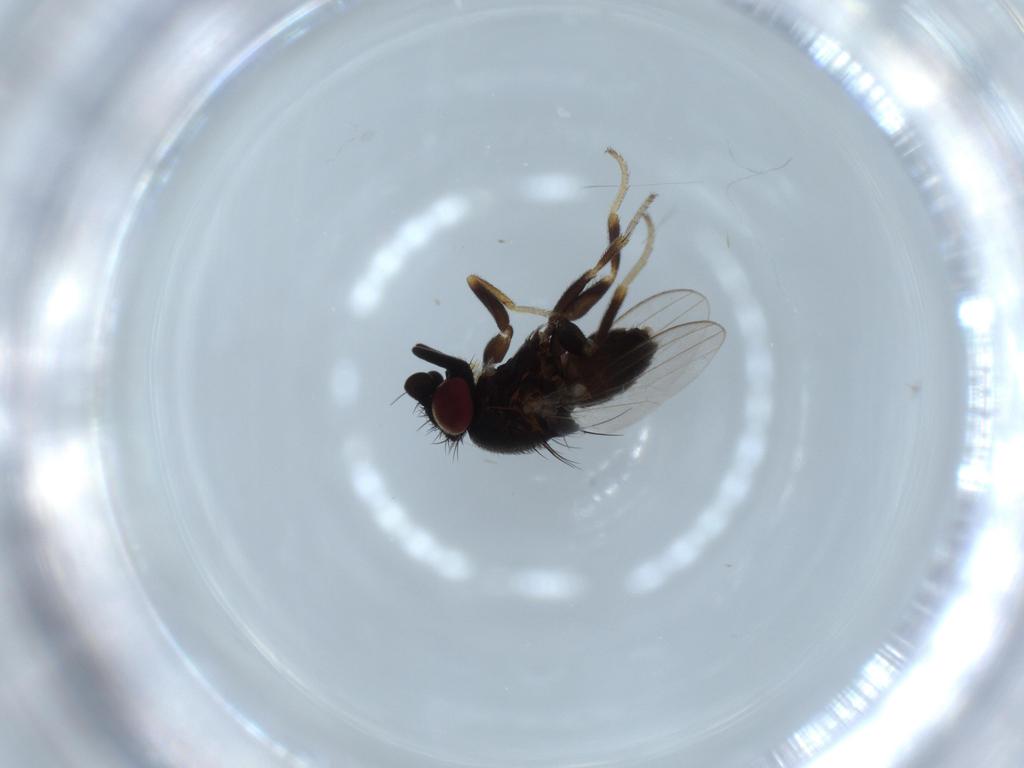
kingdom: Animalia
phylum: Arthropoda
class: Insecta
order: Diptera
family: Milichiidae
